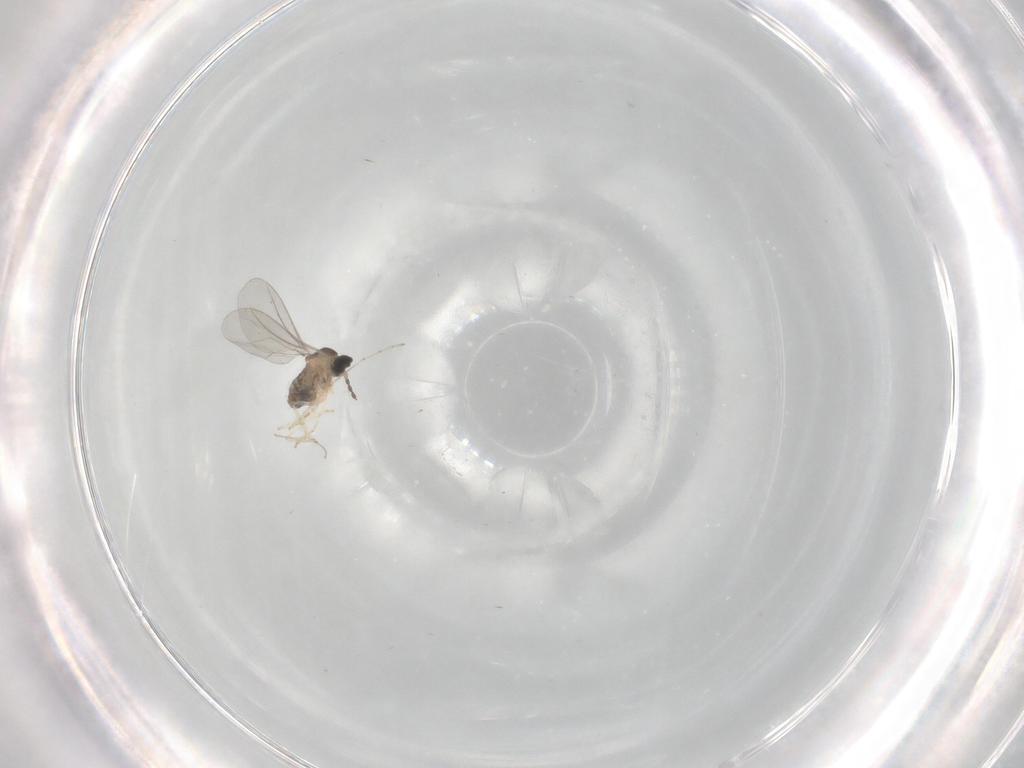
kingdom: Animalia
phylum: Arthropoda
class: Insecta
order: Diptera
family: Cecidomyiidae
